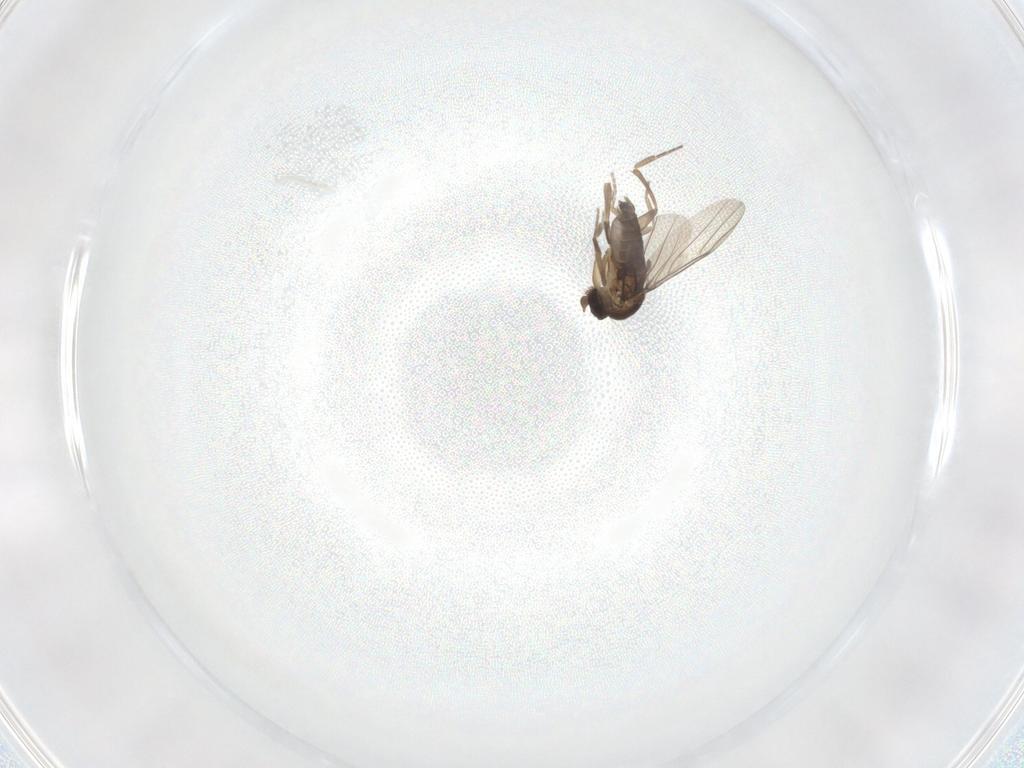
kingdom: Animalia
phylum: Arthropoda
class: Insecta
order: Diptera
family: Phoridae
